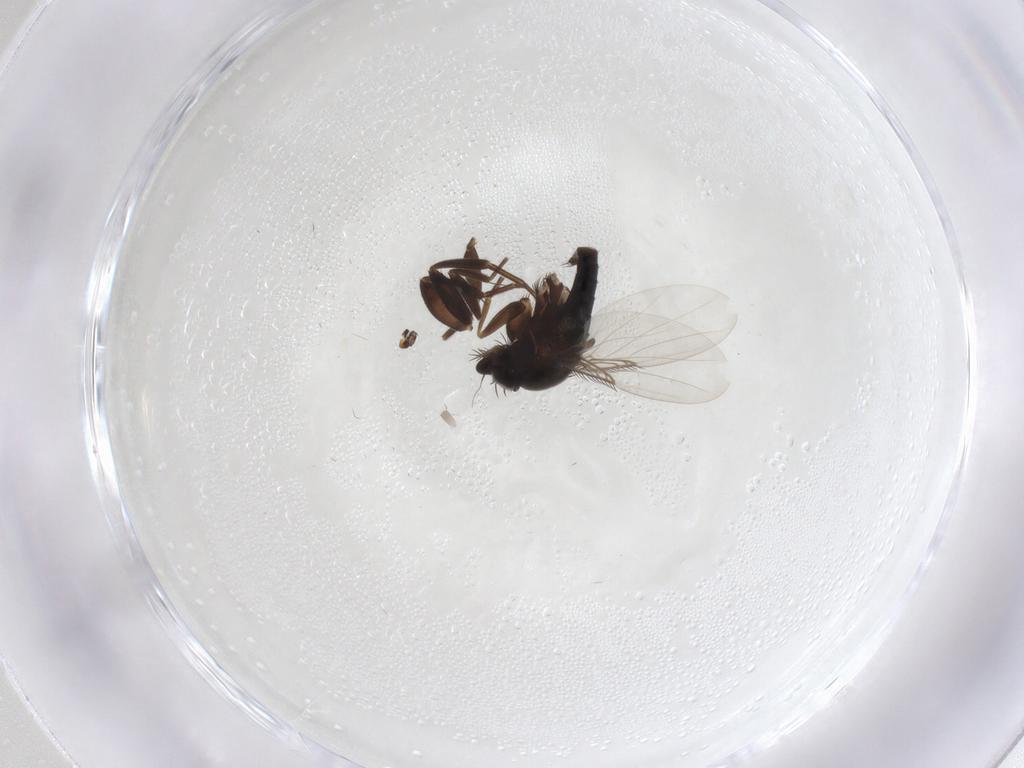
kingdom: Animalia
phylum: Arthropoda
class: Insecta
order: Diptera
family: Phoridae
